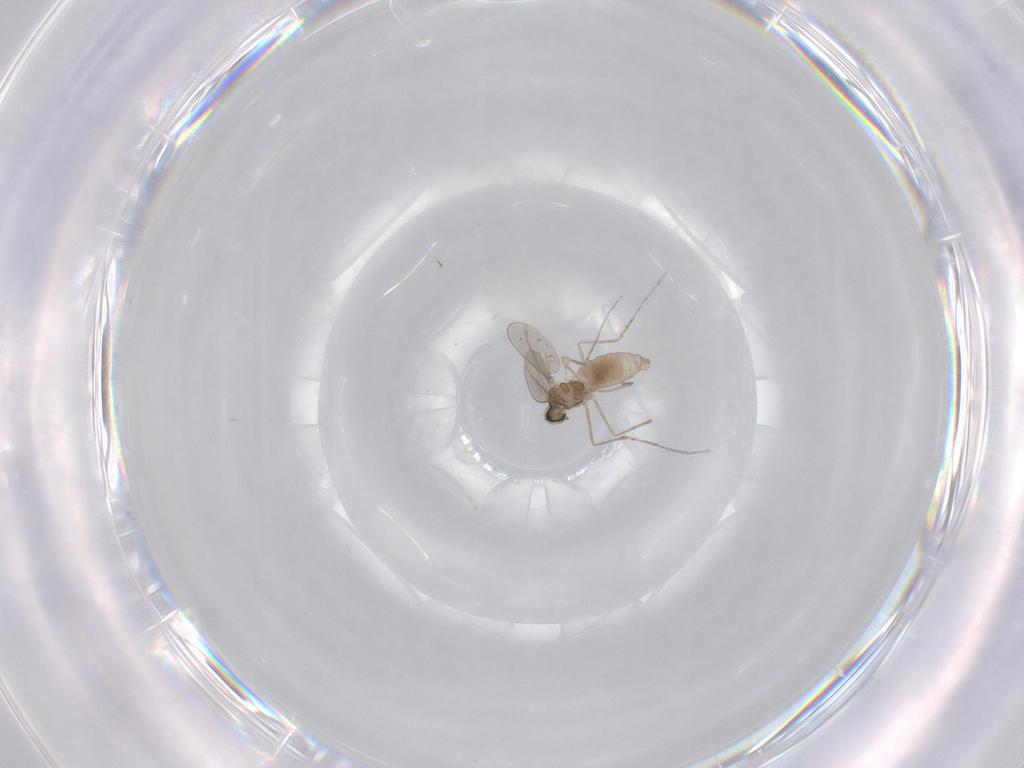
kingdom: Animalia
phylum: Arthropoda
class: Insecta
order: Diptera
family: Cecidomyiidae
